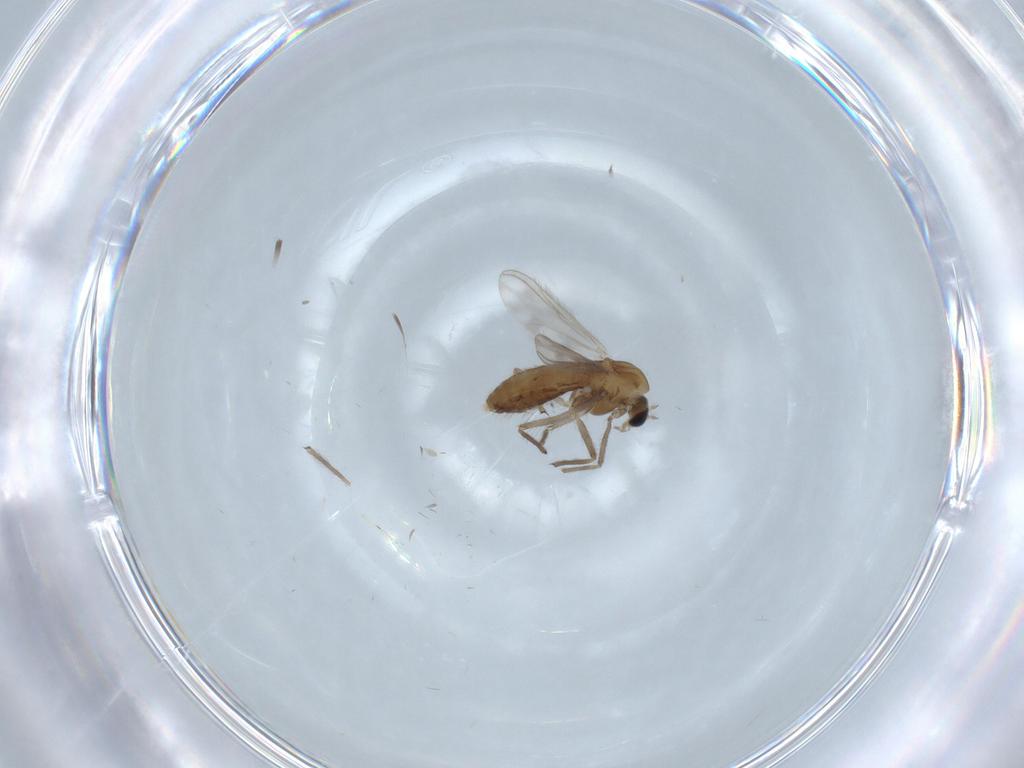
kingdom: Animalia
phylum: Arthropoda
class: Insecta
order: Diptera
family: Chironomidae
